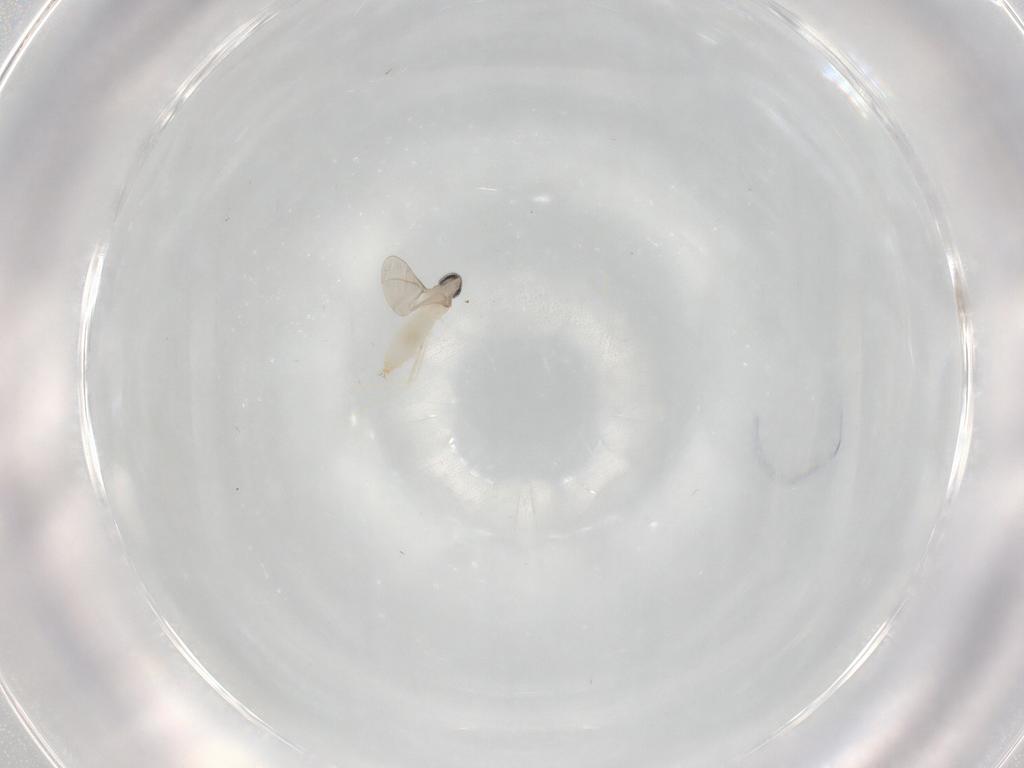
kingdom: Animalia
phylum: Arthropoda
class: Insecta
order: Diptera
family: Cecidomyiidae
